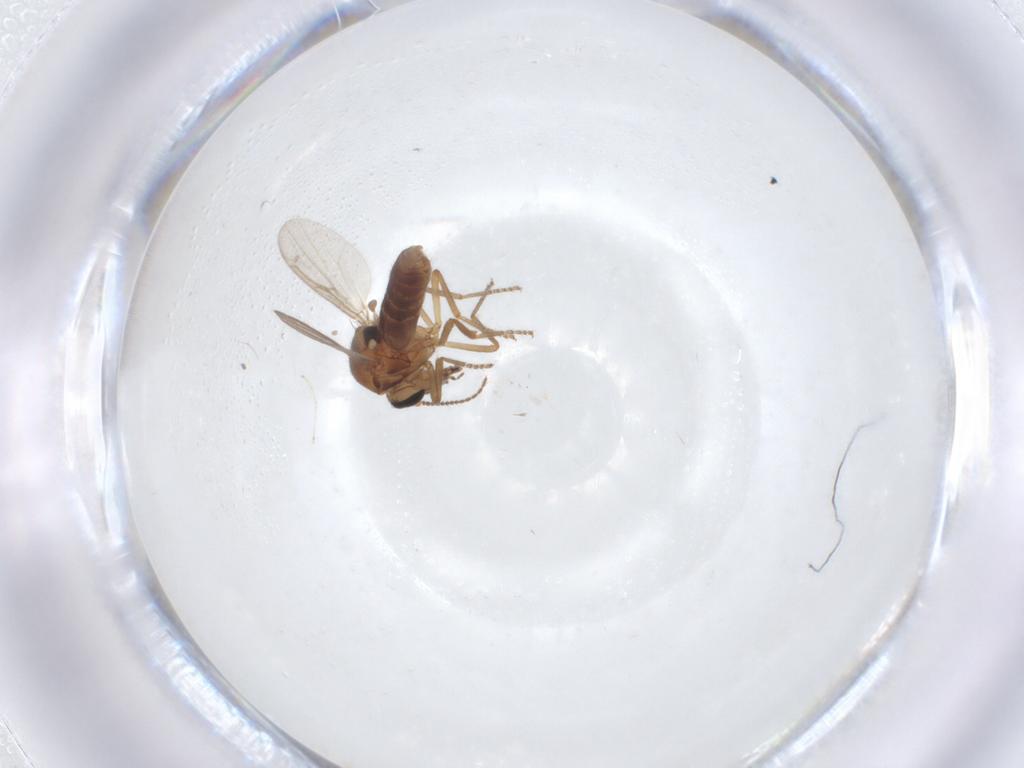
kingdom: Animalia
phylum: Arthropoda
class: Insecta
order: Diptera
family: Ceratopogonidae
